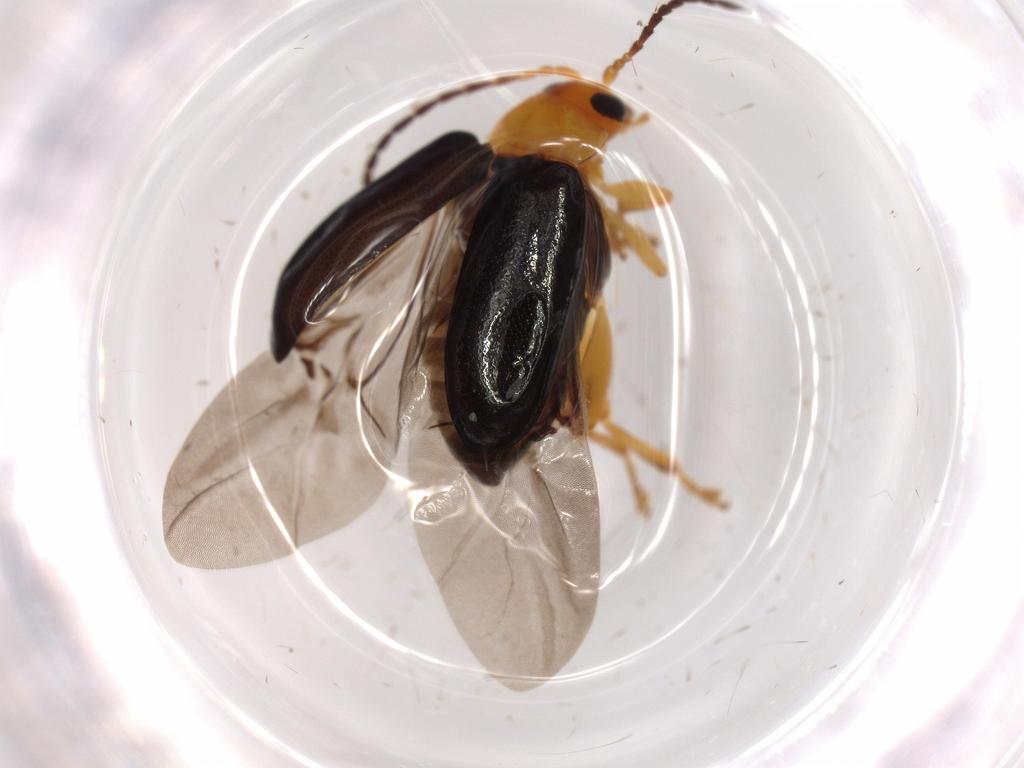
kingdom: Animalia
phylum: Arthropoda
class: Insecta
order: Coleoptera
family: Chrysomelidae
